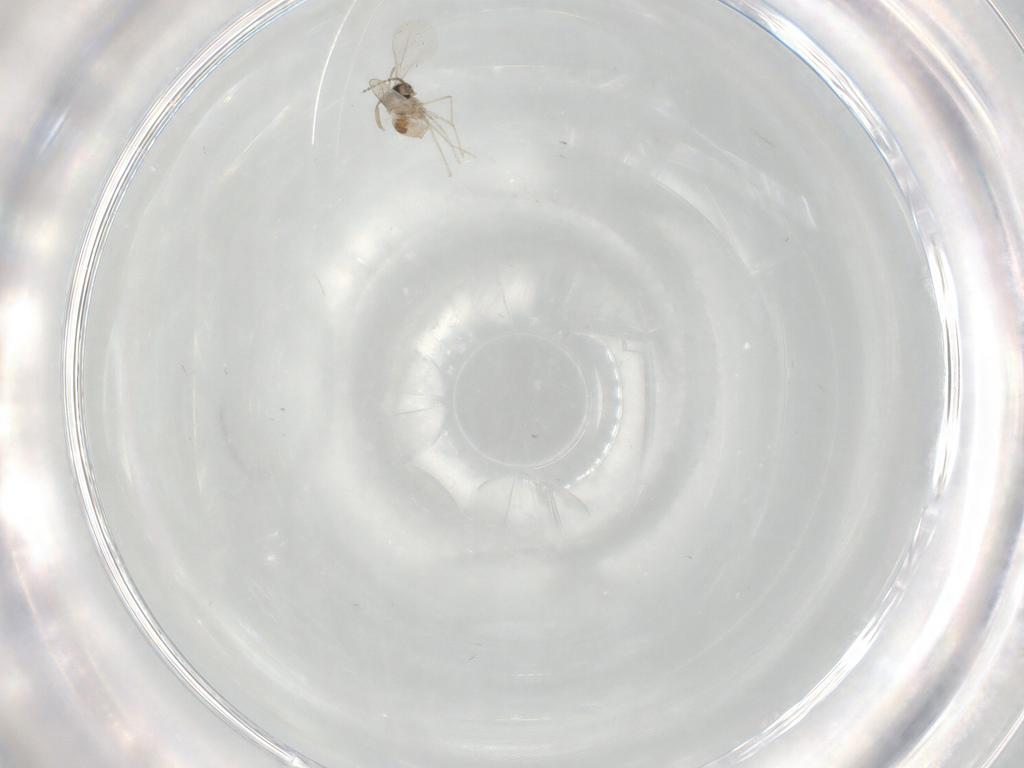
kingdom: Animalia
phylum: Arthropoda
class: Insecta
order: Diptera
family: Cecidomyiidae
